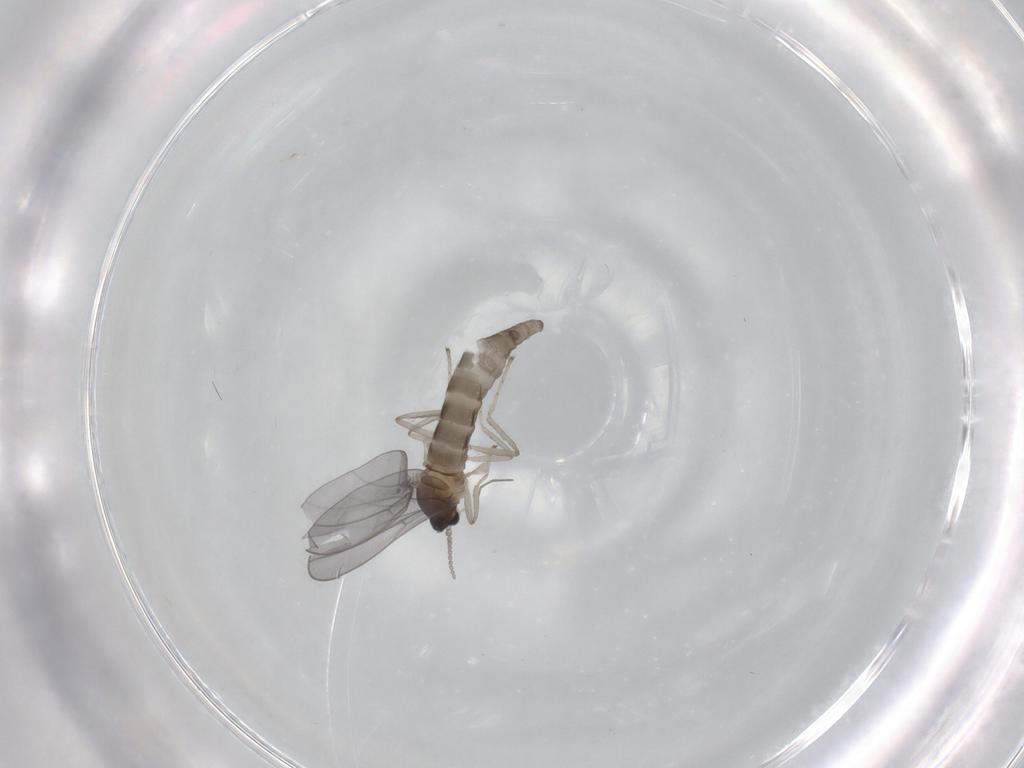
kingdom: Animalia
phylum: Arthropoda
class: Insecta
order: Diptera
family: Cecidomyiidae
